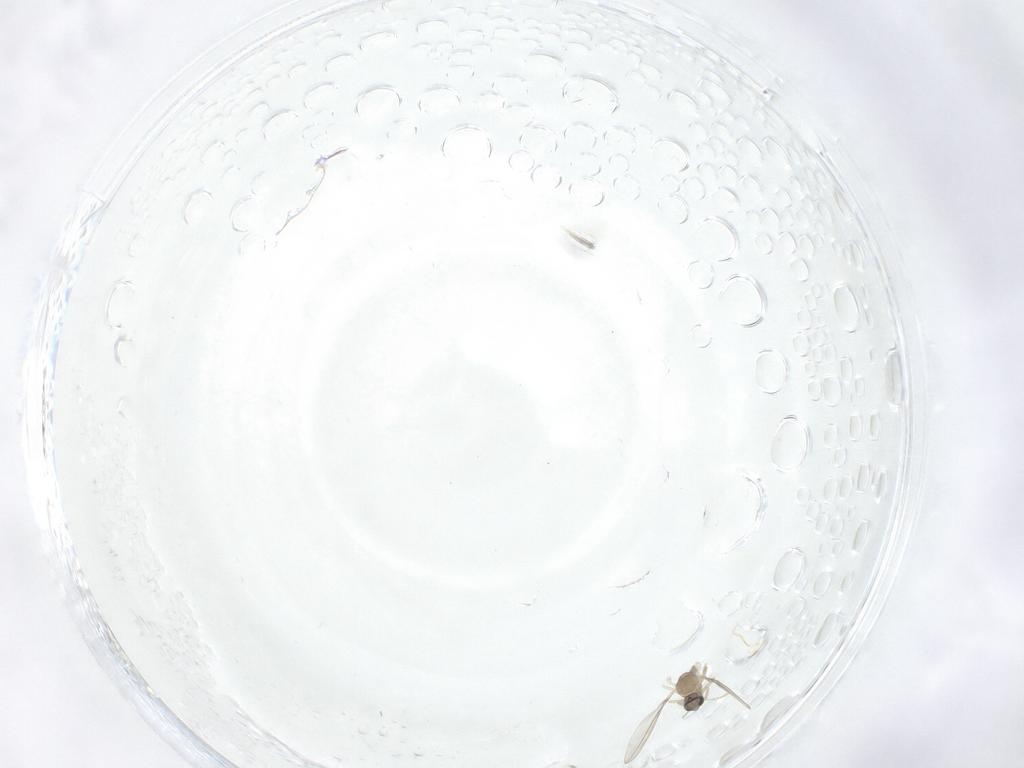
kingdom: Animalia
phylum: Arthropoda
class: Insecta
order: Diptera
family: Cecidomyiidae
